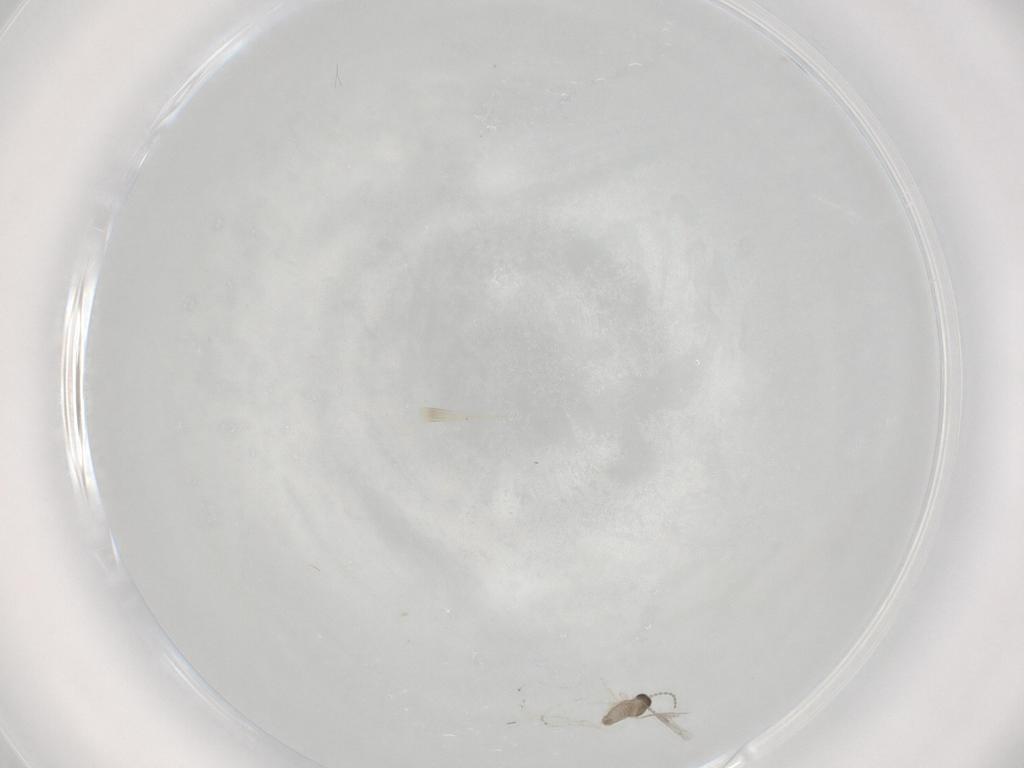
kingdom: Animalia
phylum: Arthropoda
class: Insecta
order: Diptera
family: Cecidomyiidae
